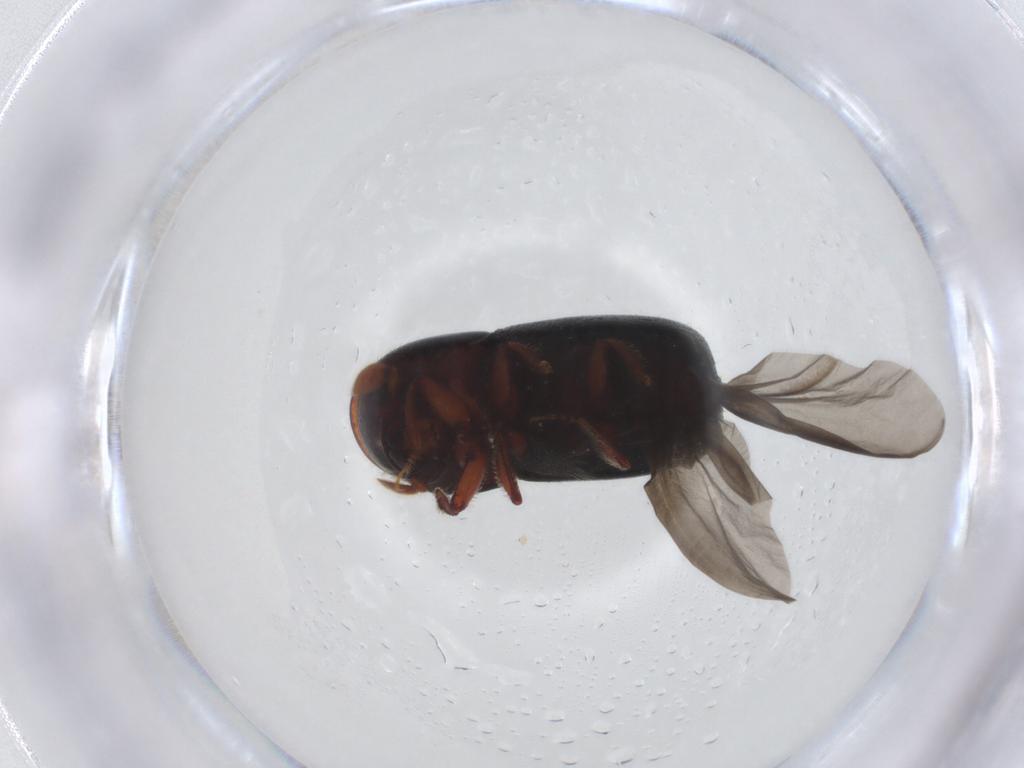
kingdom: Animalia
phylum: Arthropoda
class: Insecta
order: Coleoptera
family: Curculionidae
